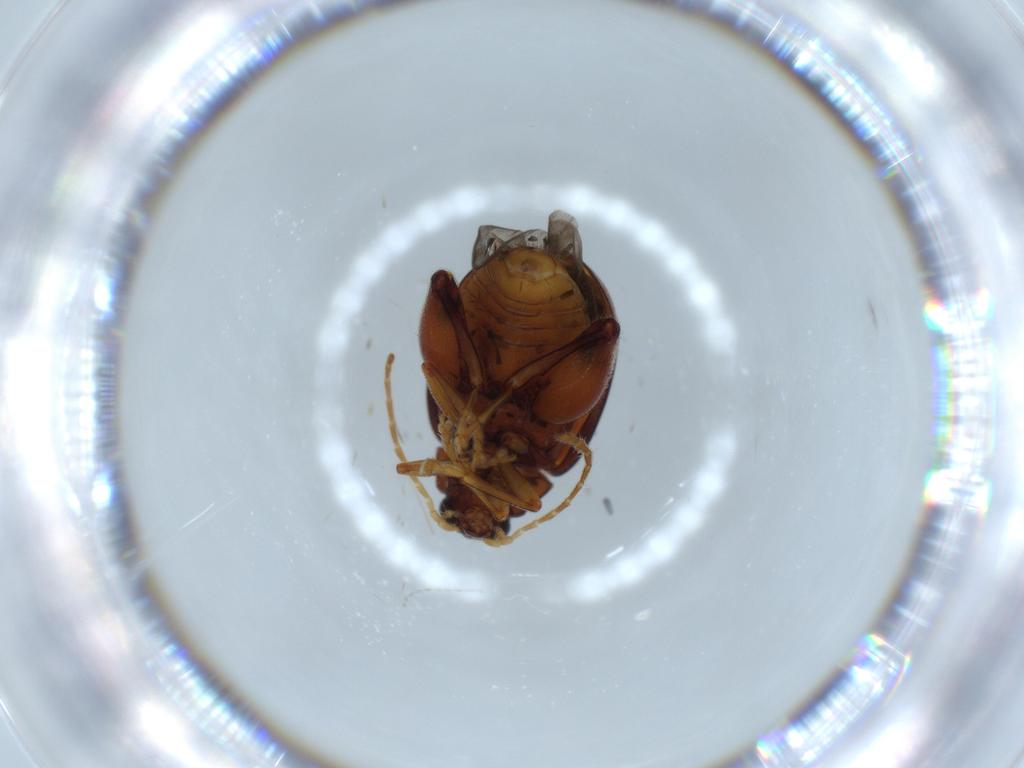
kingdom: Animalia
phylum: Arthropoda
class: Insecta
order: Coleoptera
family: Chrysomelidae
